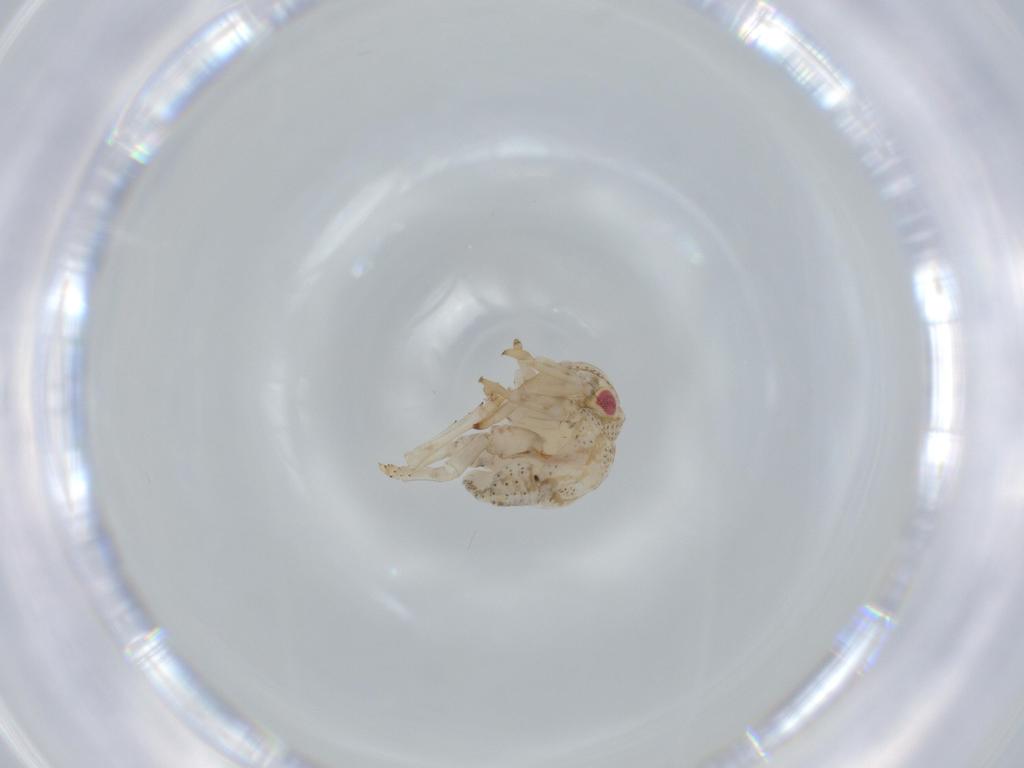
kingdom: Animalia
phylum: Arthropoda
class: Insecta
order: Hemiptera
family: Acanaloniidae
